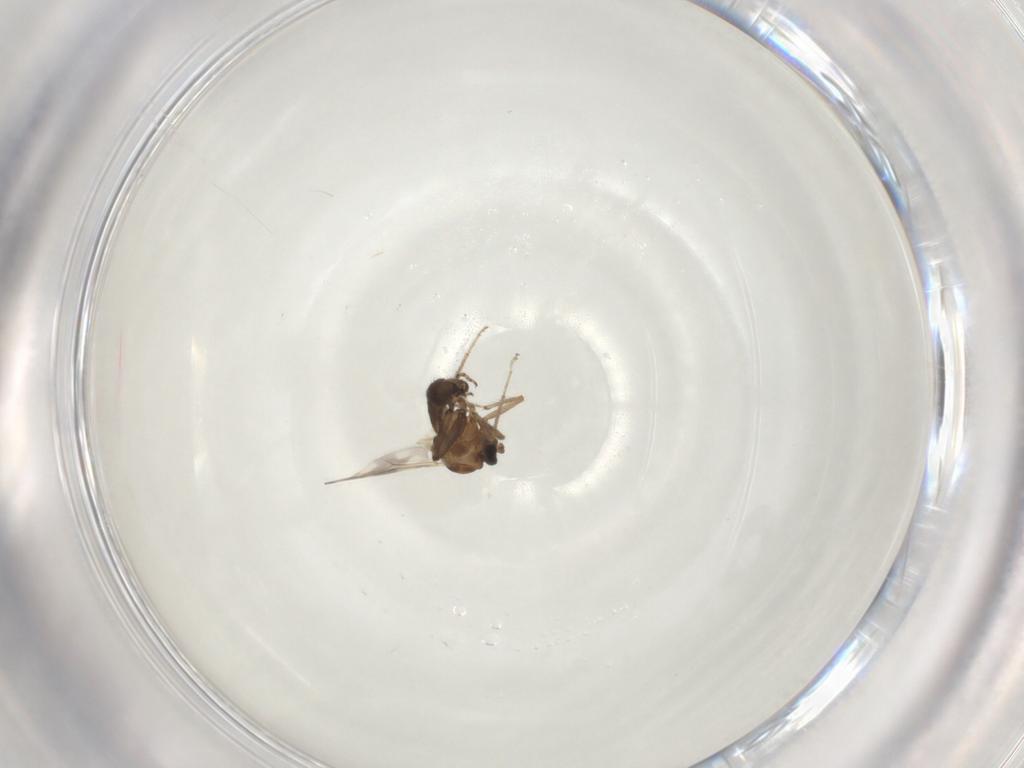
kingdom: Animalia
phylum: Arthropoda
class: Insecta
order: Diptera
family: Ceratopogonidae
